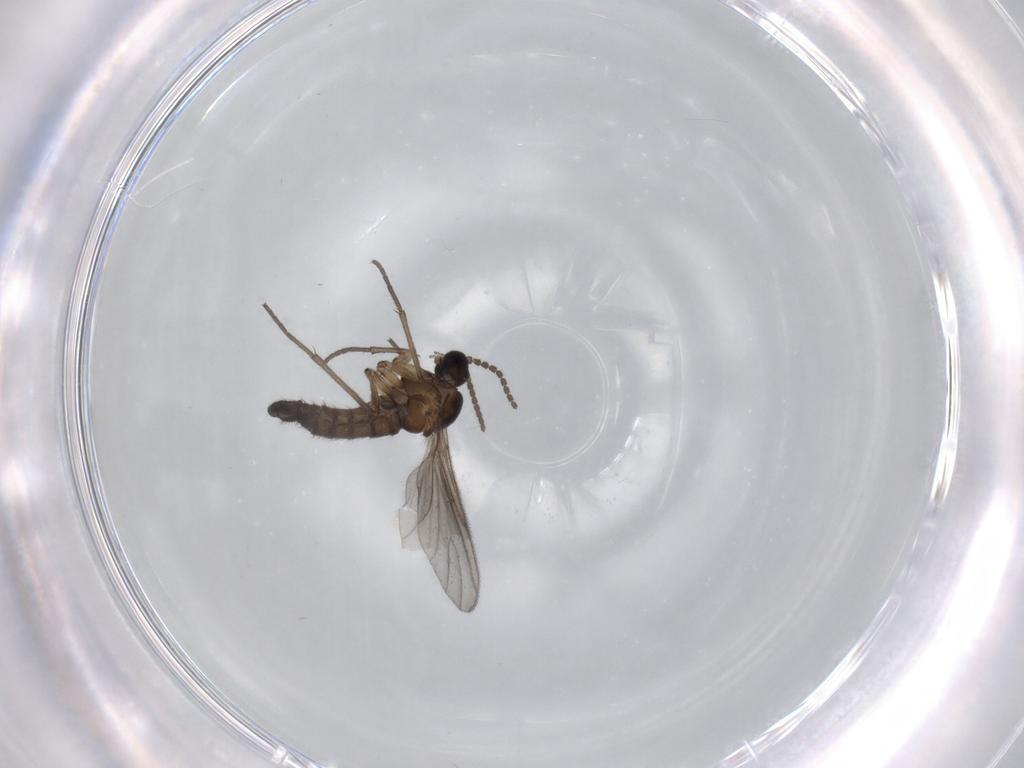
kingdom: Animalia
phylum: Arthropoda
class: Insecta
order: Diptera
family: Sciaridae
